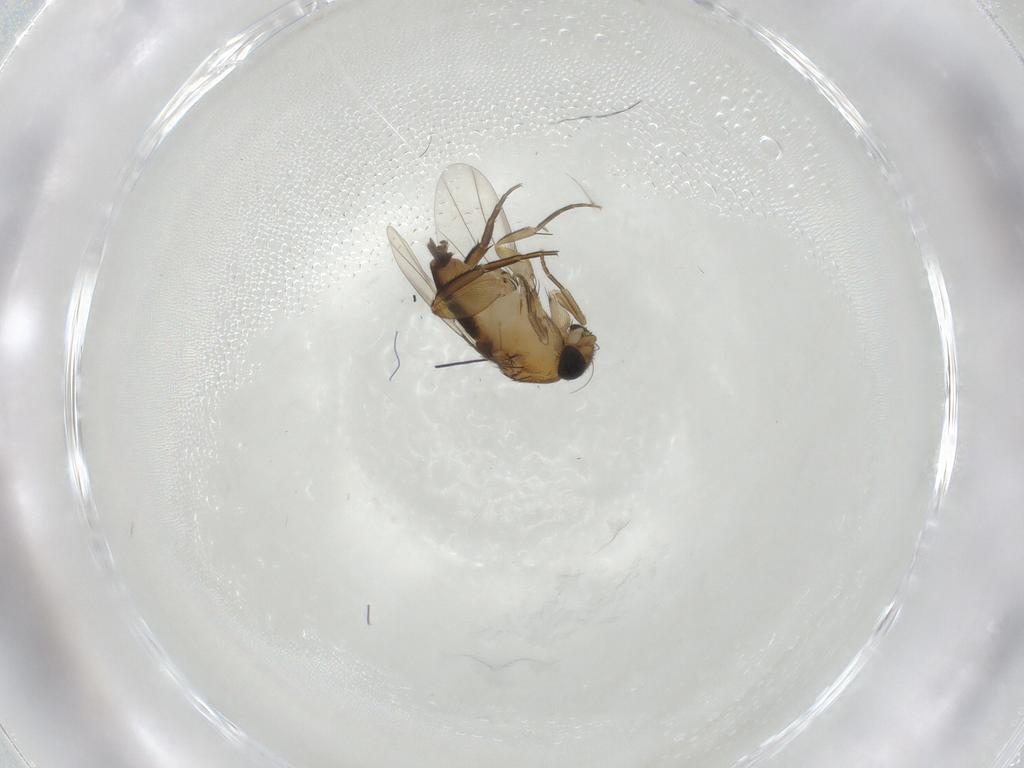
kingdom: Animalia
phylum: Arthropoda
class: Insecta
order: Diptera
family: Phoridae
